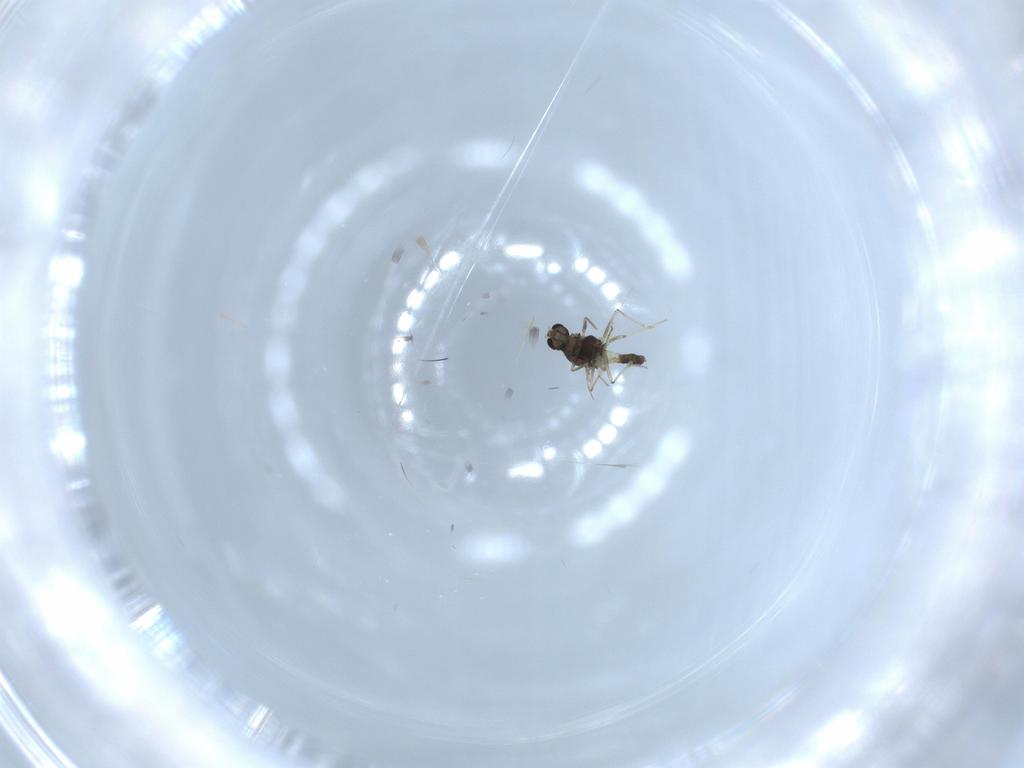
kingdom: Animalia
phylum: Arthropoda
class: Insecta
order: Diptera
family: Chironomidae
